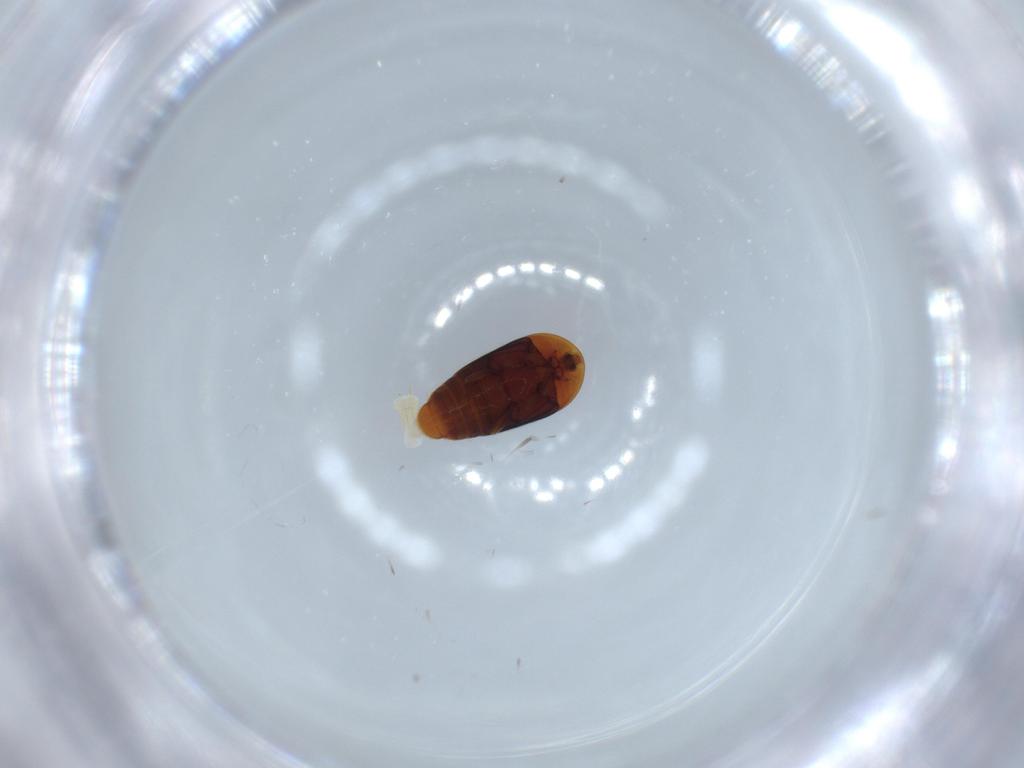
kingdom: Animalia
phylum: Arthropoda
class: Insecta
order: Coleoptera
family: Corylophidae
